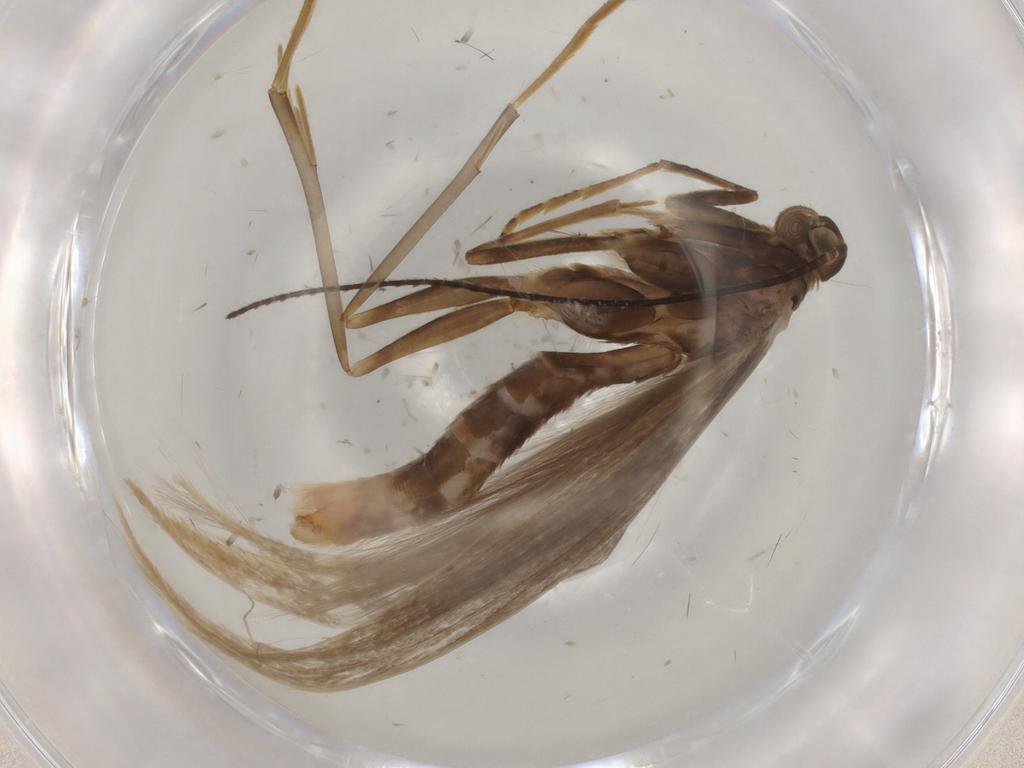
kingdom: Animalia
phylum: Arthropoda
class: Insecta
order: Lepidoptera
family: Coleophoridae
